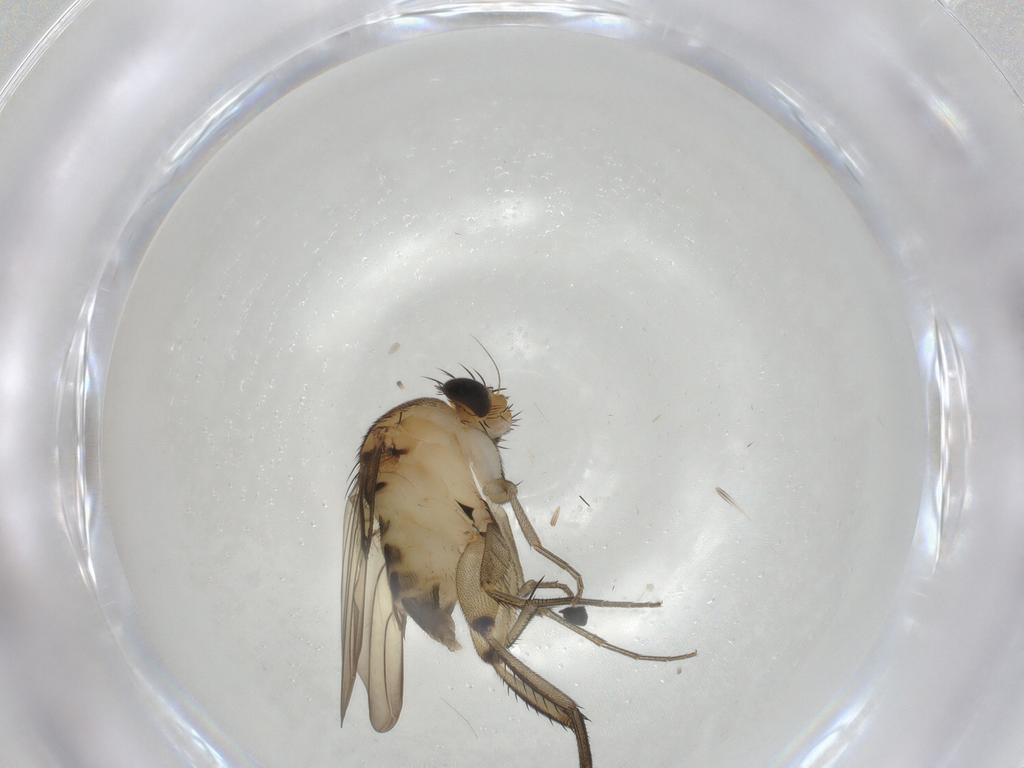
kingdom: Animalia
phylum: Arthropoda
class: Insecta
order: Diptera
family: Phoridae
